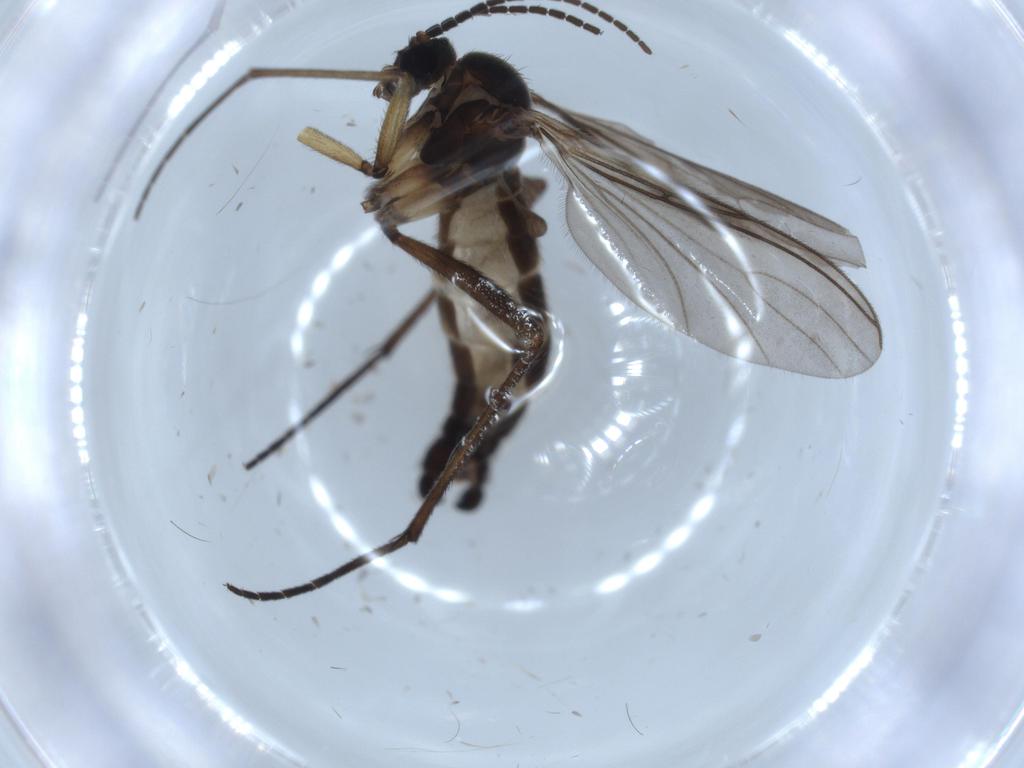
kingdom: Animalia
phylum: Arthropoda
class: Insecta
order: Diptera
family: Sciaridae
